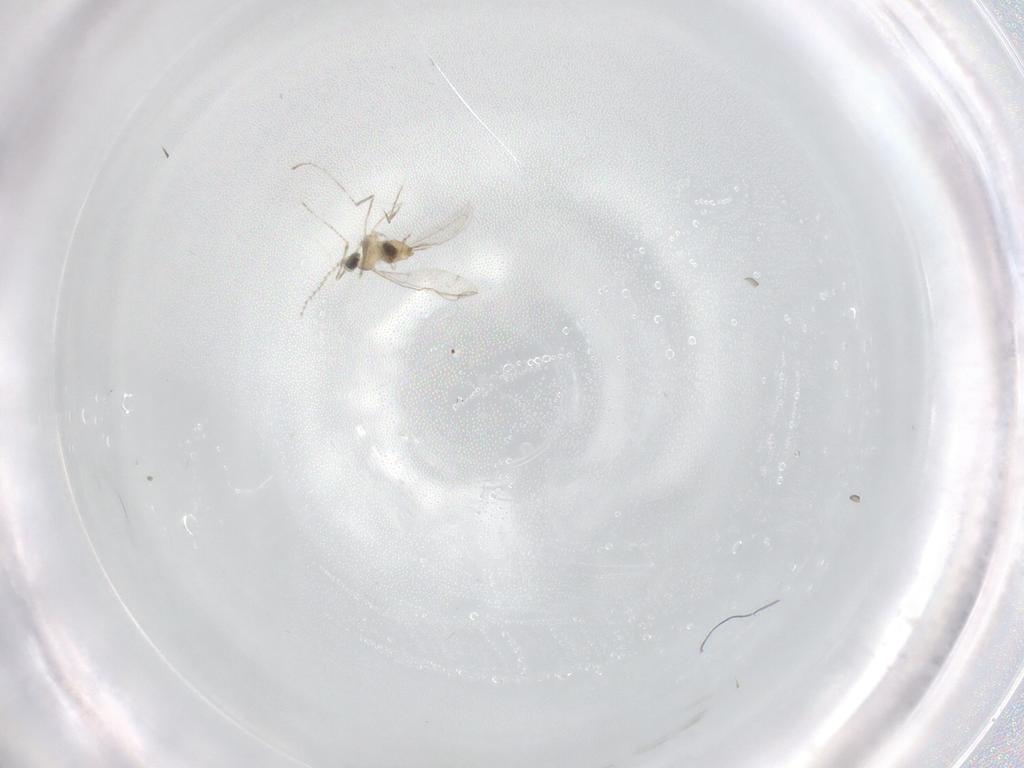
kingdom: Animalia
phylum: Arthropoda
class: Insecta
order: Diptera
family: Cecidomyiidae
